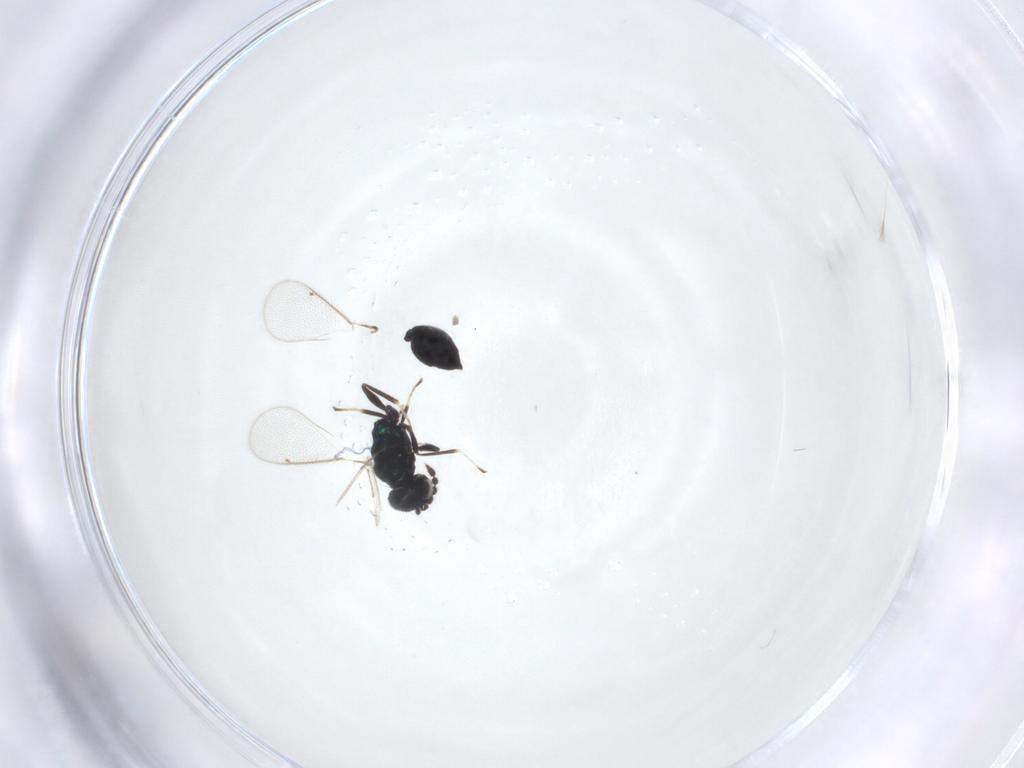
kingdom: Animalia
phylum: Arthropoda
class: Insecta
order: Hymenoptera
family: Eulophidae
